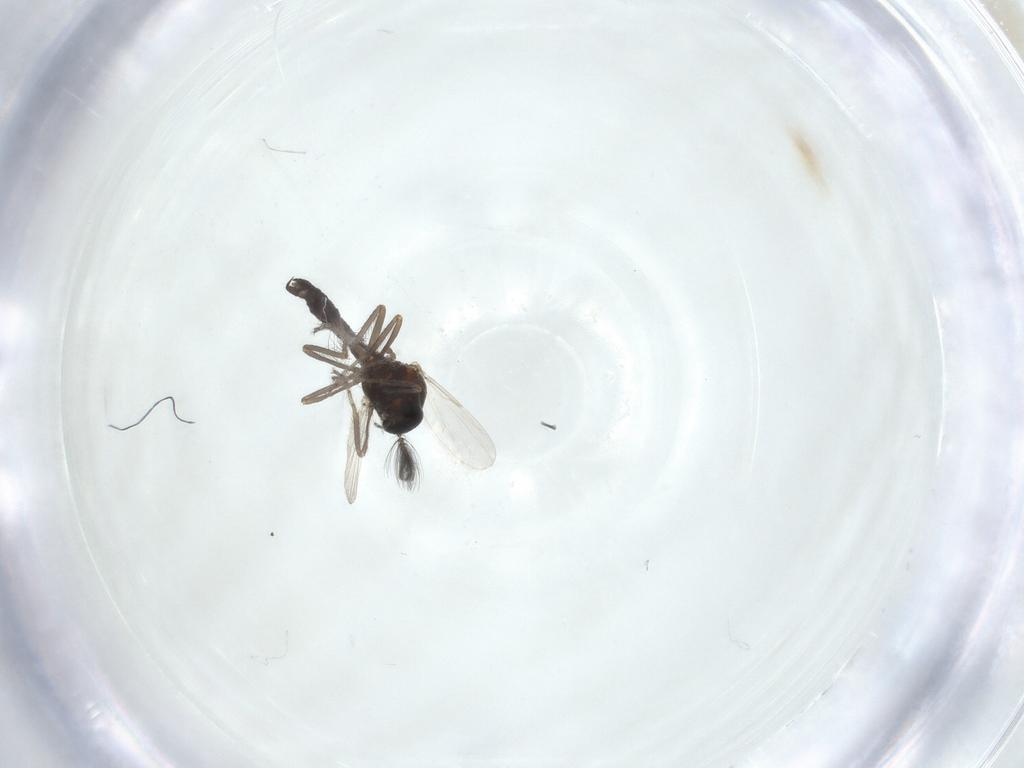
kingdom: Animalia
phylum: Arthropoda
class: Insecta
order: Diptera
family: Ceratopogonidae
